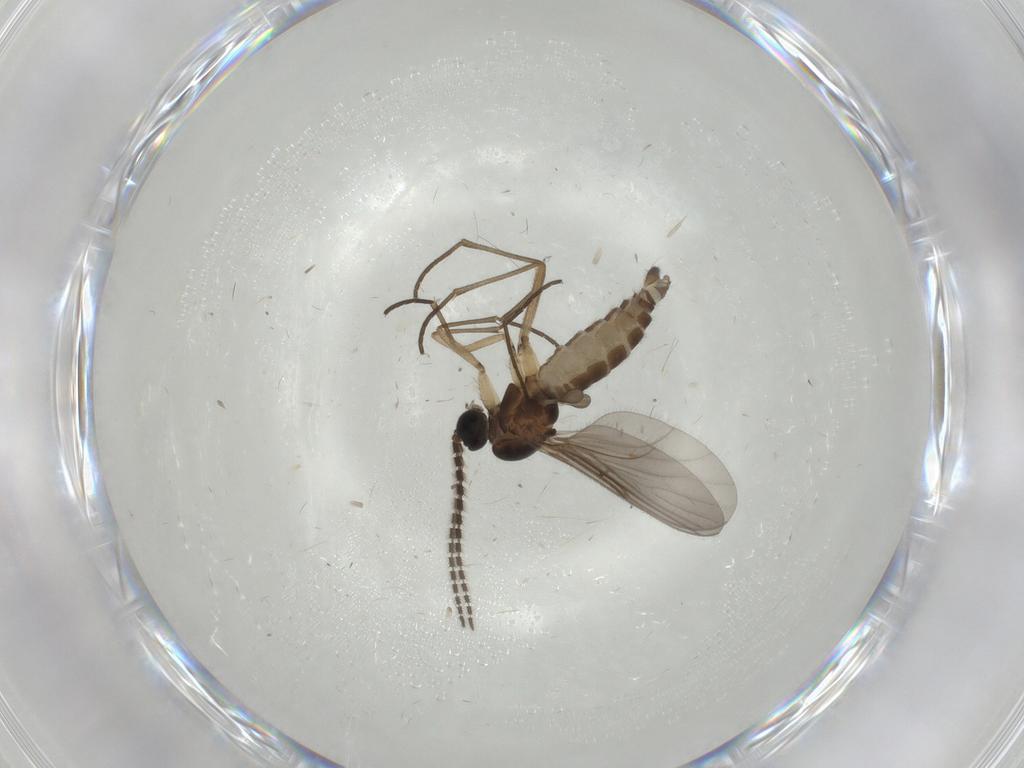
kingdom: Animalia
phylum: Arthropoda
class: Insecta
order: Diptera
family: Sciaridae
